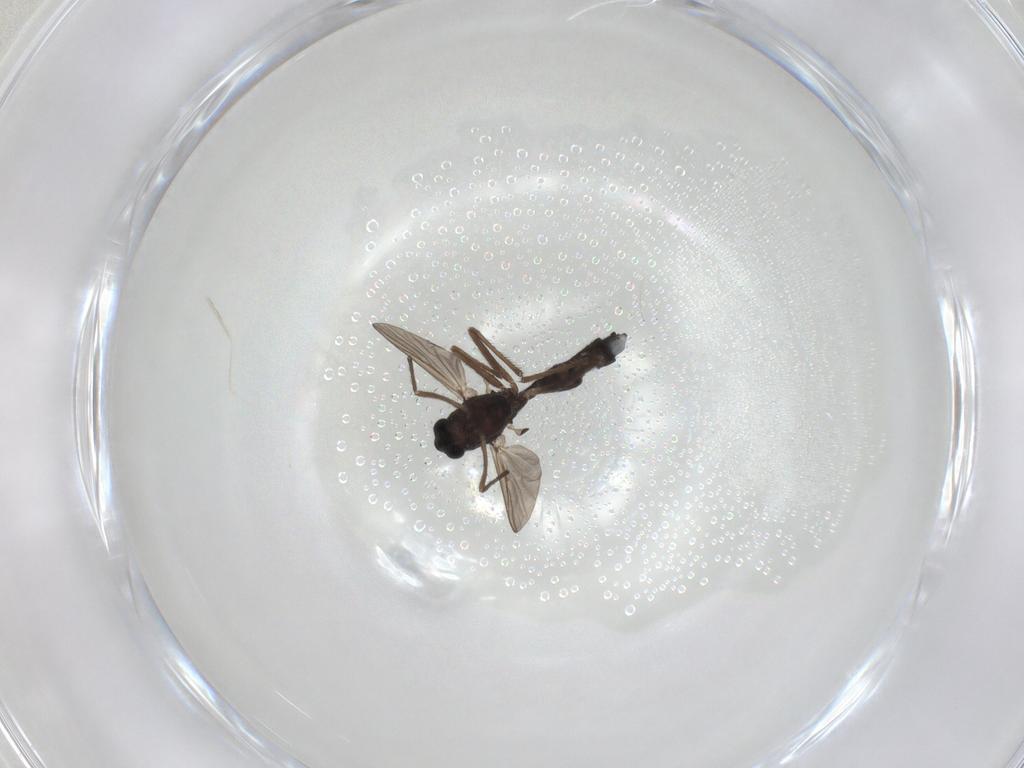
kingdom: Animalia
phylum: Arthropoda
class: Insecta
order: Diptera
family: Chironomidae
